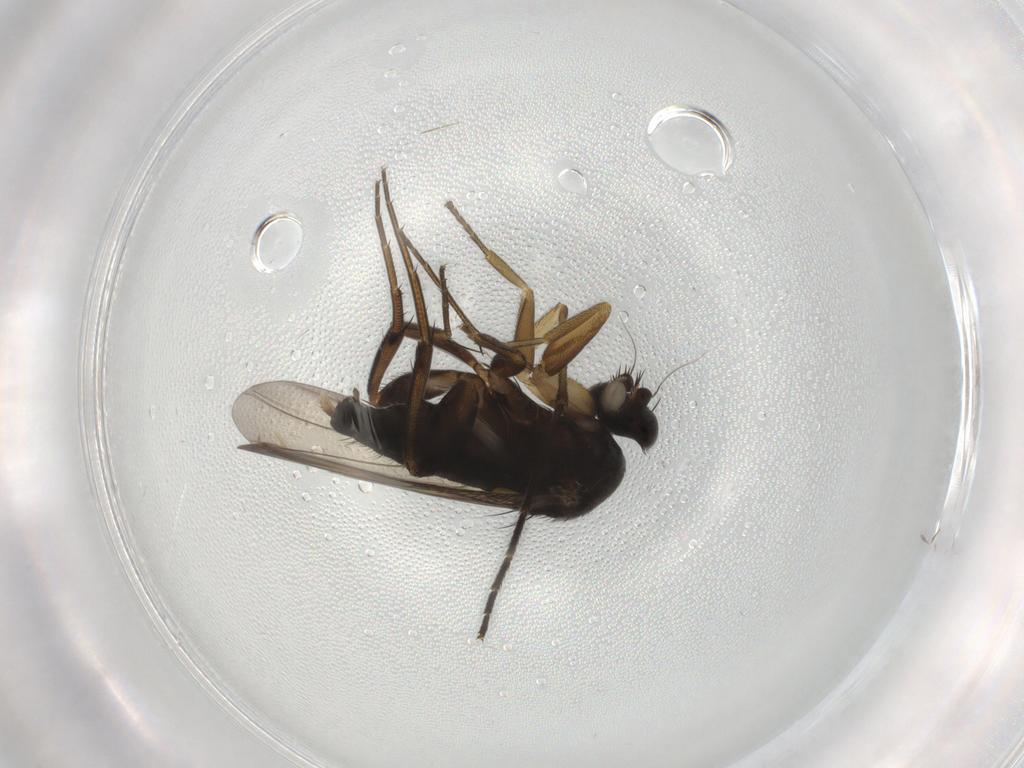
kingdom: Animalia
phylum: Arthropoda
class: Insecta
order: Diptera
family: Phoridae
